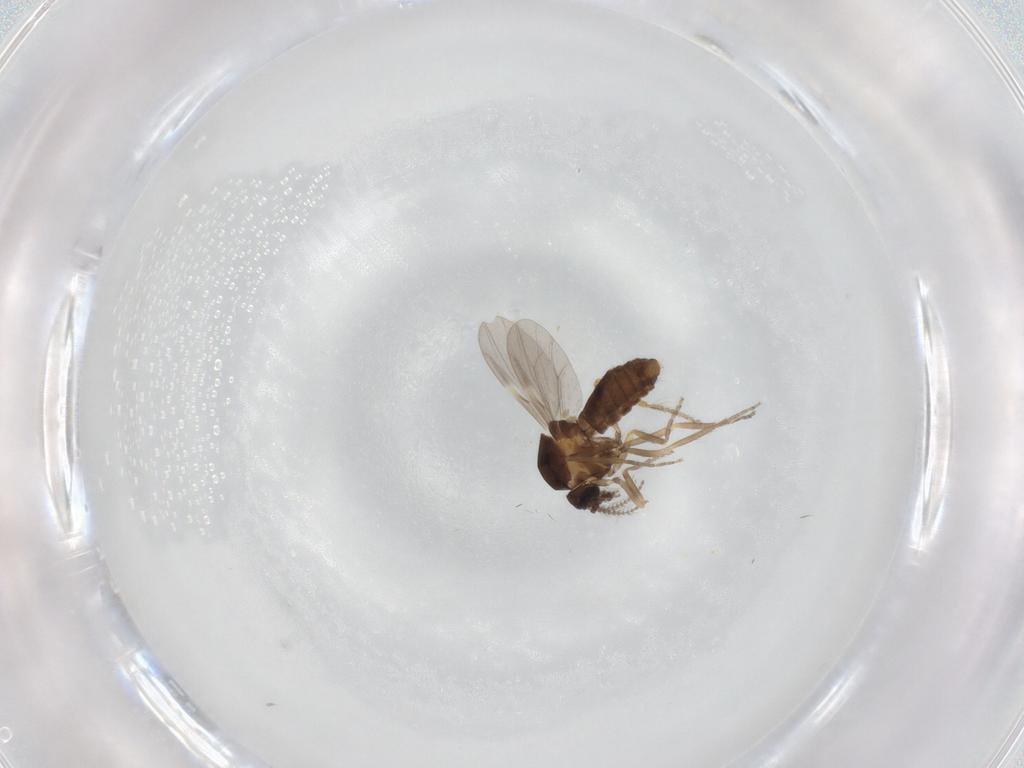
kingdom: Animalia
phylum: Arthropoda
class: Insecta
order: Diptera
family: Ceratopogonidae
